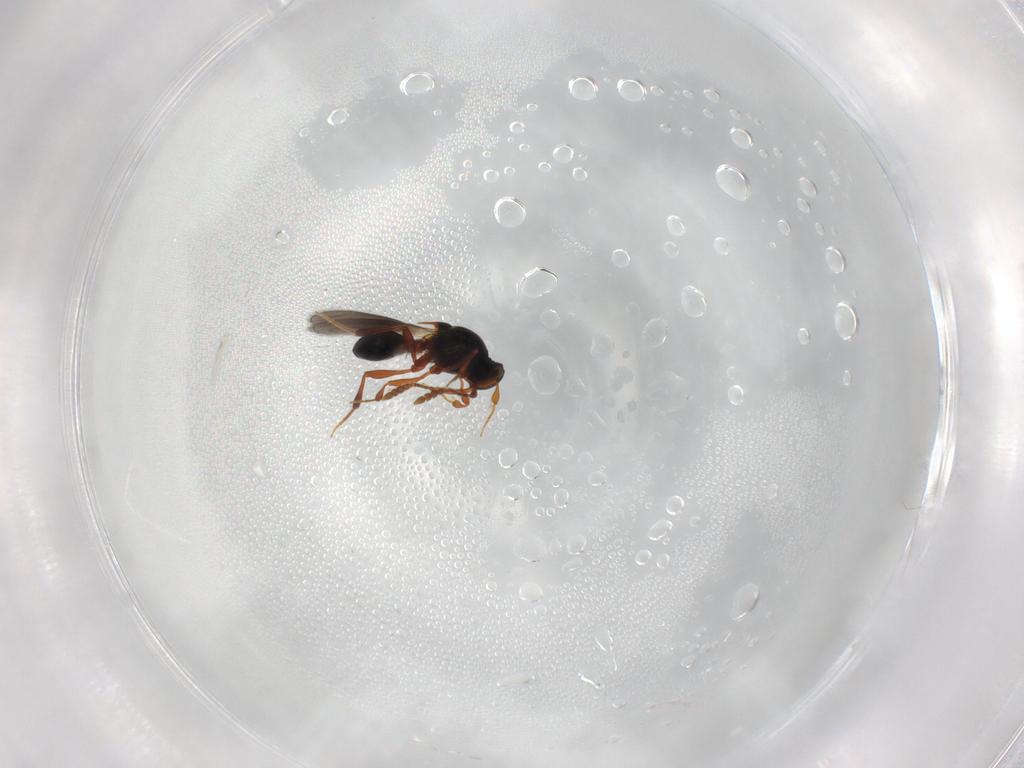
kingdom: Animalia
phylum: Arthropoda
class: Insecta
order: Hymenoptera
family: Platygastridae
